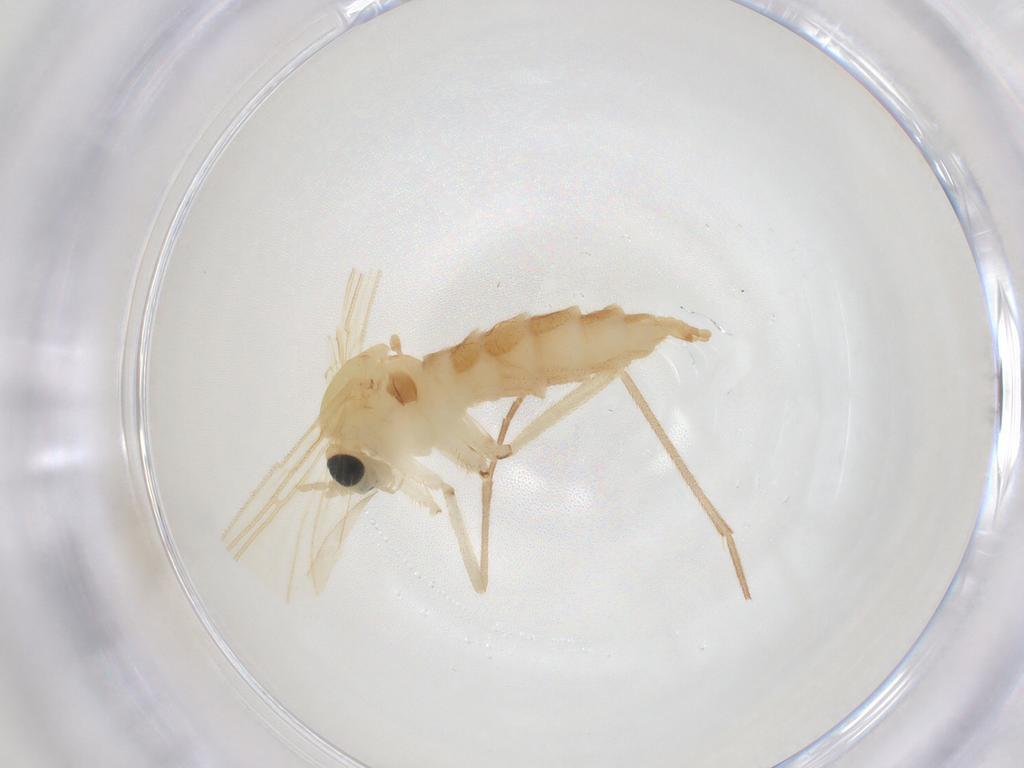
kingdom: Animalia
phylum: Arthropoda
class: Insecta
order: Diptera
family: Sciaridae
